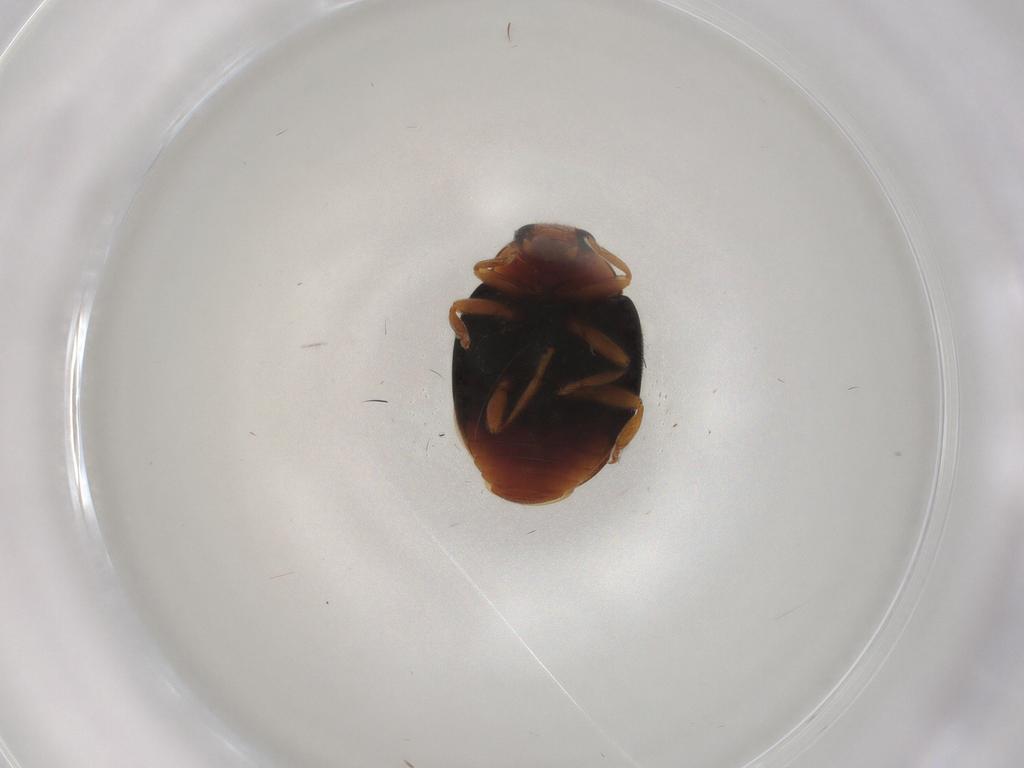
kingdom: Animalia
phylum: Arthropoda
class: Insecta
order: Coleoptera
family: Coccinellidae
